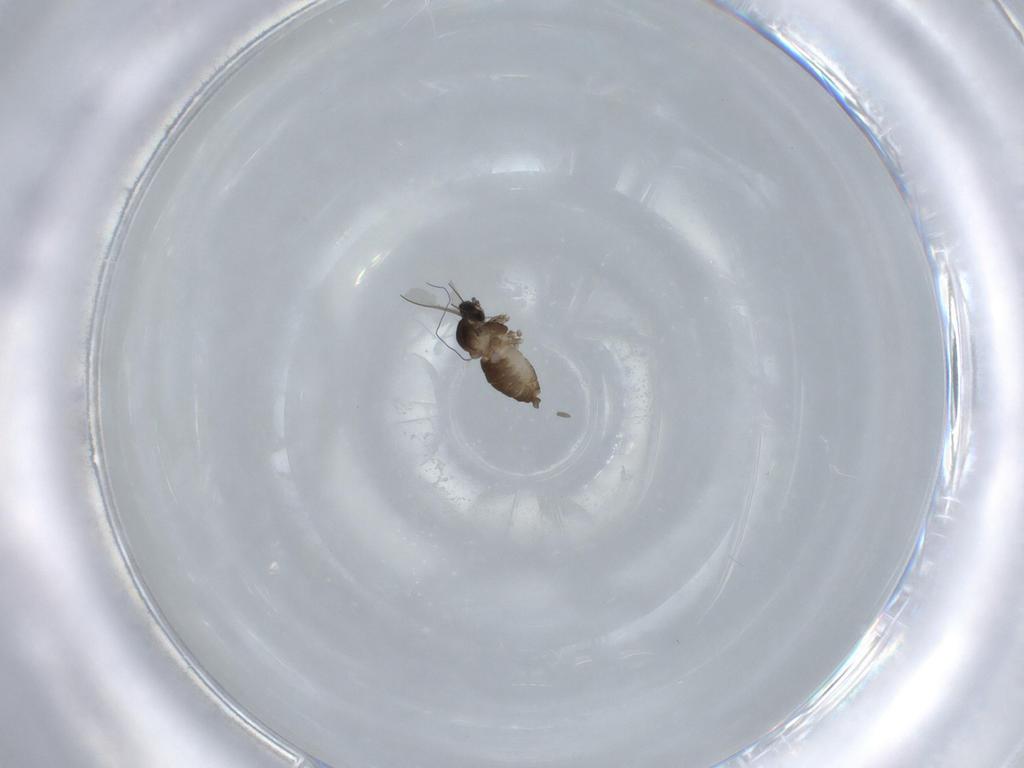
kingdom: Animalia
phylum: Arthropoda
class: Insecta
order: Diptera
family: Cecidomyiidae
